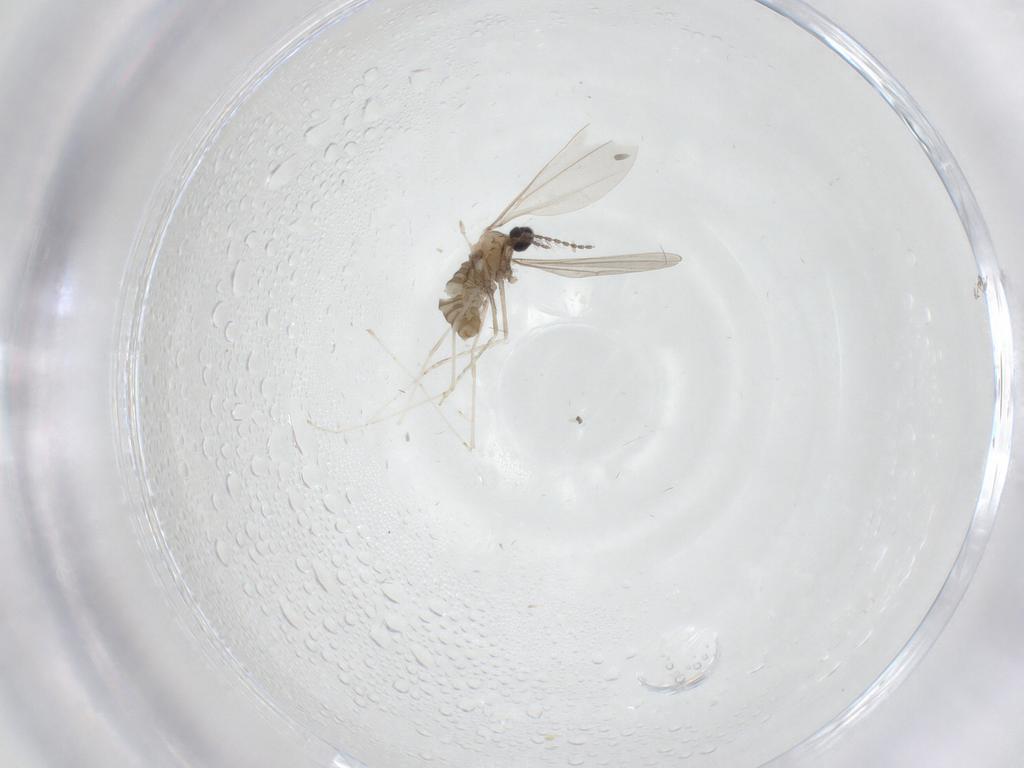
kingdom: Animalia
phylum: Arthropoda
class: Insecta
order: Diptera
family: Cecidomyiidae
